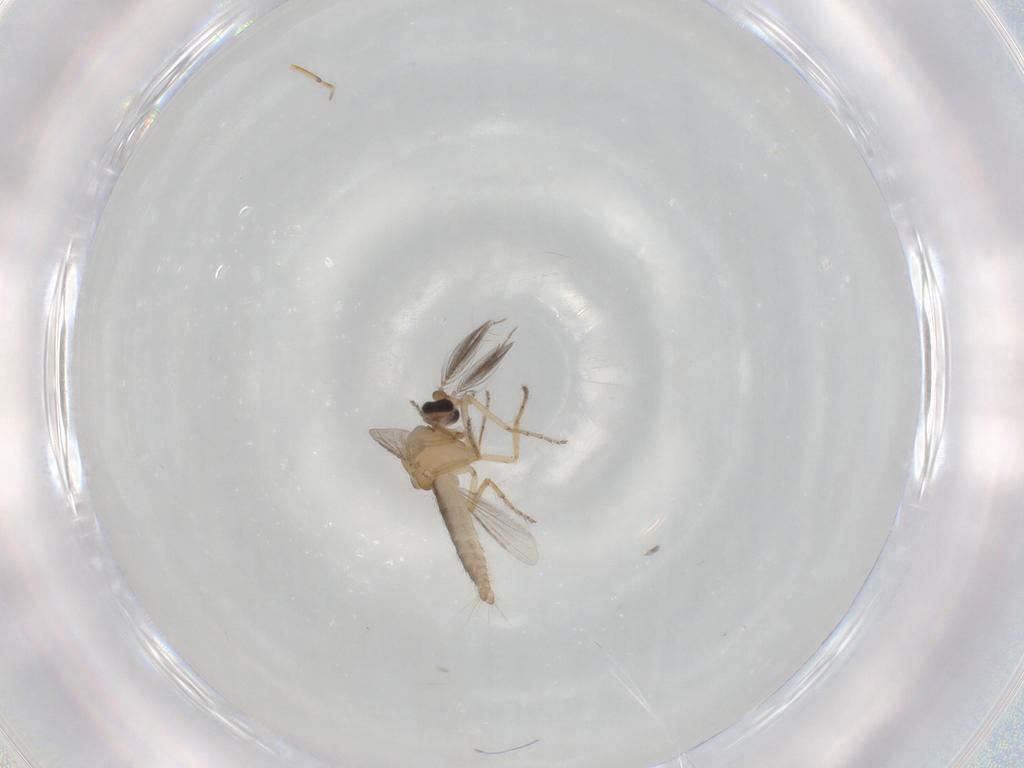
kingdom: Animalia
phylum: Arthropoda
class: Insecta
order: Diptera
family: Ceratopogonidae
